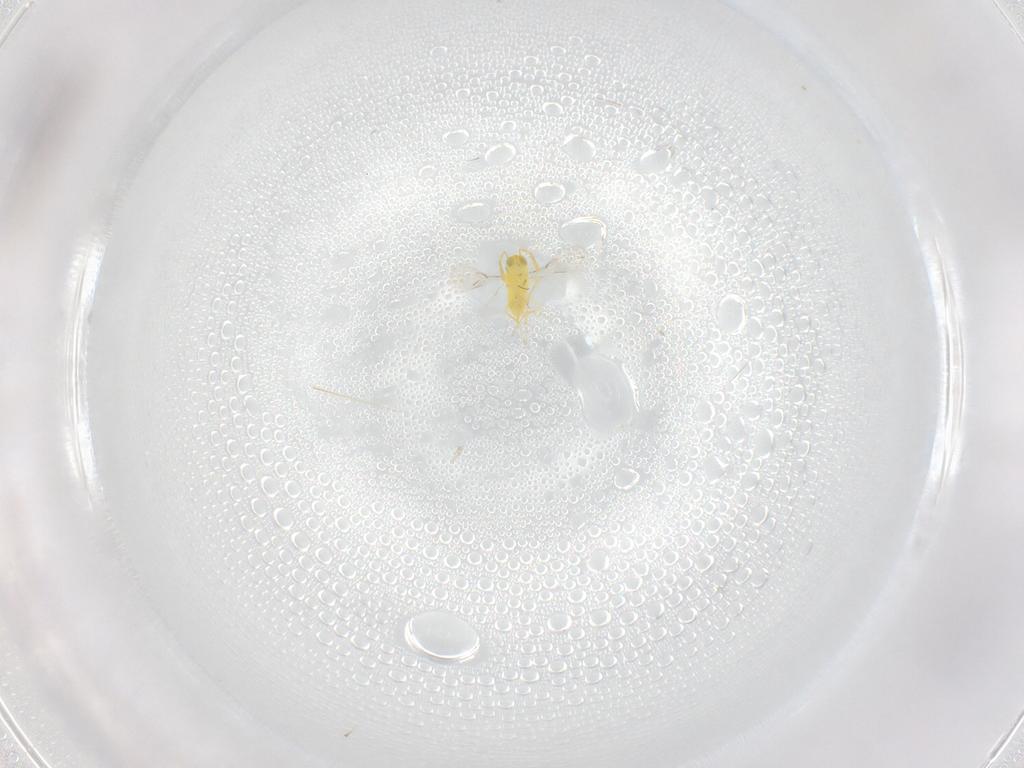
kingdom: Animalia
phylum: Arthropoda
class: Insecta
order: Hymenoptera
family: Aphelinidae
